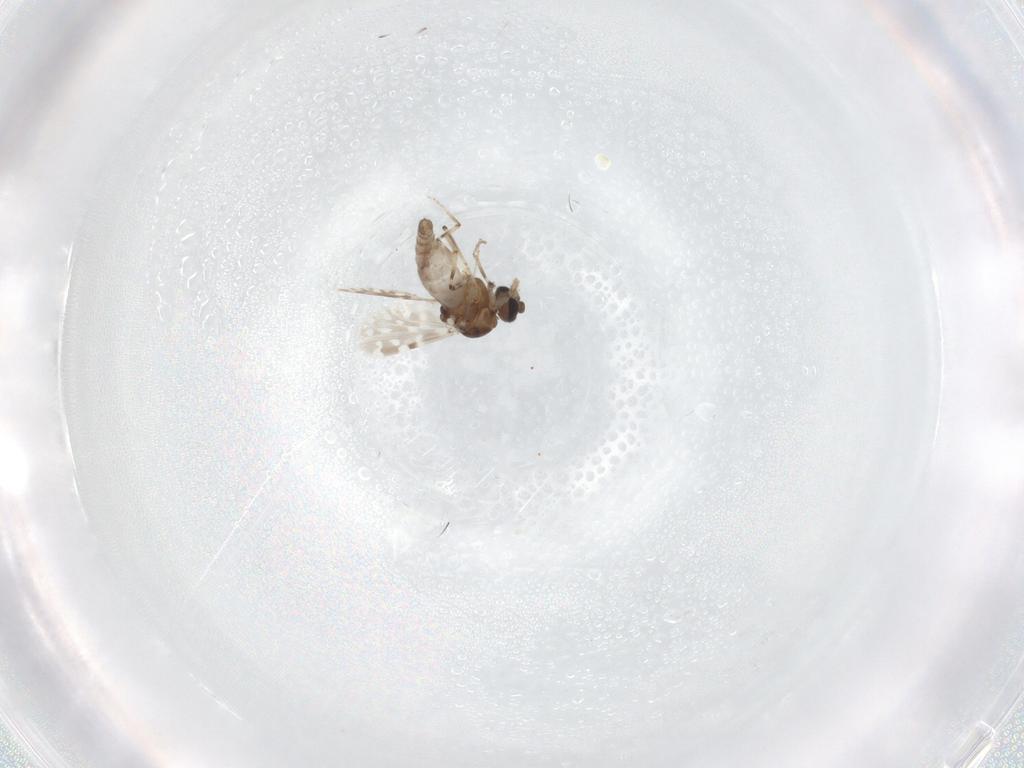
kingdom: Animalia
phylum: Arthropoda
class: Insecta
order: Diptera
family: Ceratopogonidae
